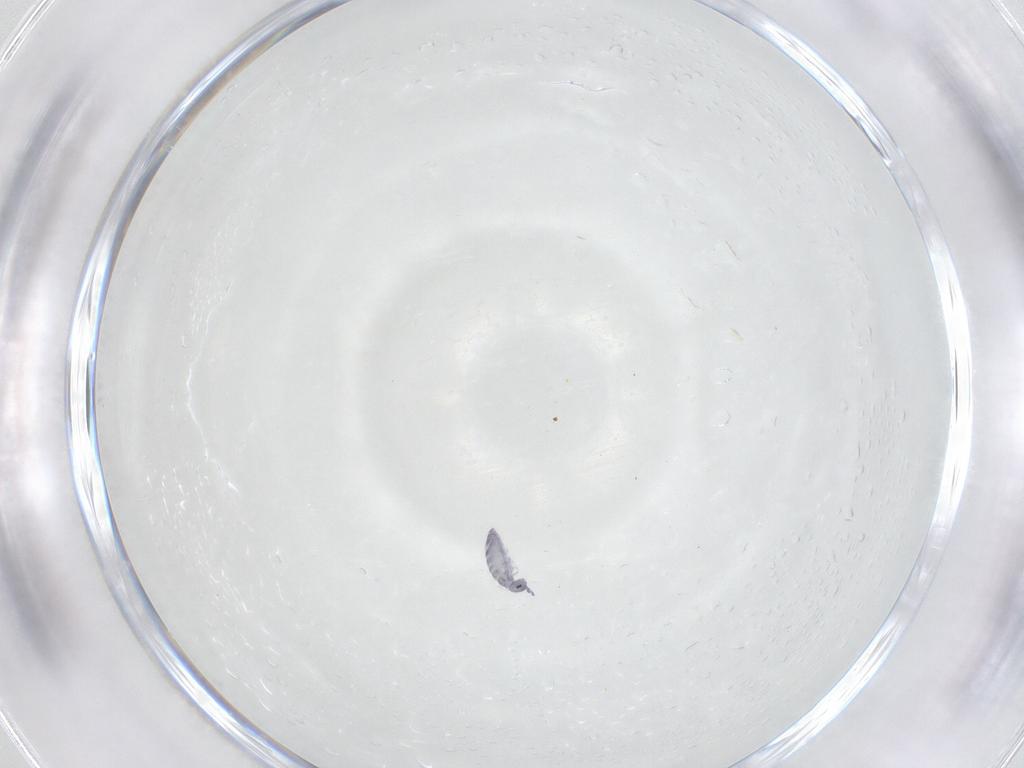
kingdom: Animalia
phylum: Arthropoda
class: Collembola
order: Entomobryomorpha
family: Entomobryidae
